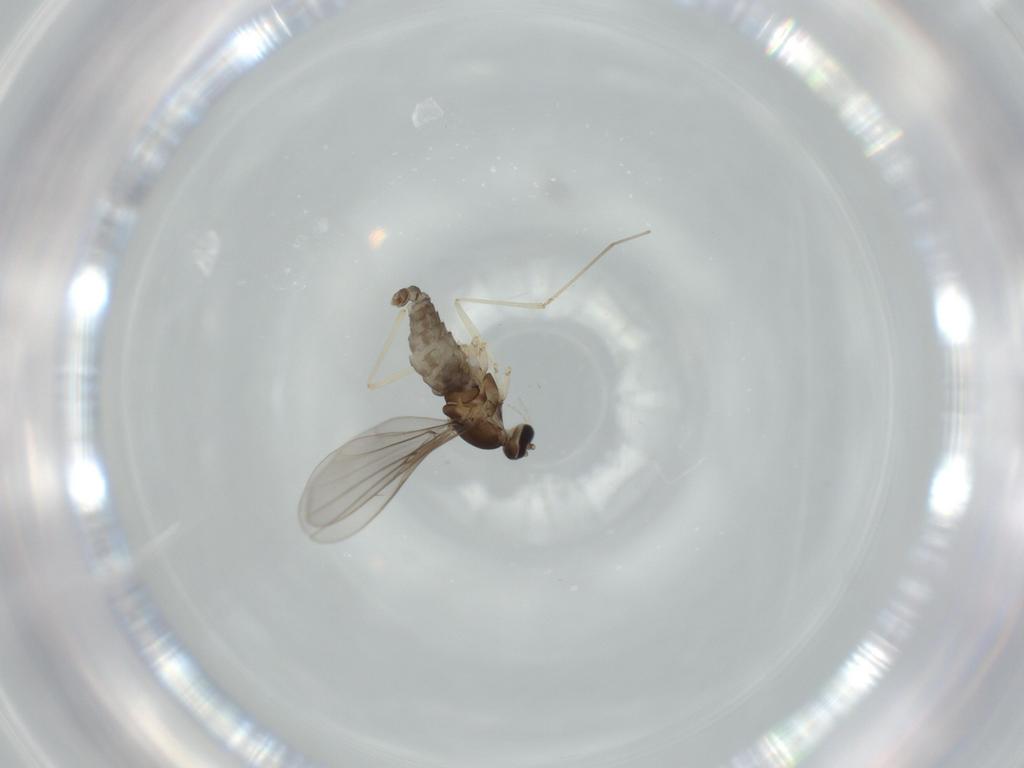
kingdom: Animalia
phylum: Arthropoda
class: Insecta
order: Diptera
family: Cecidomyiidae
